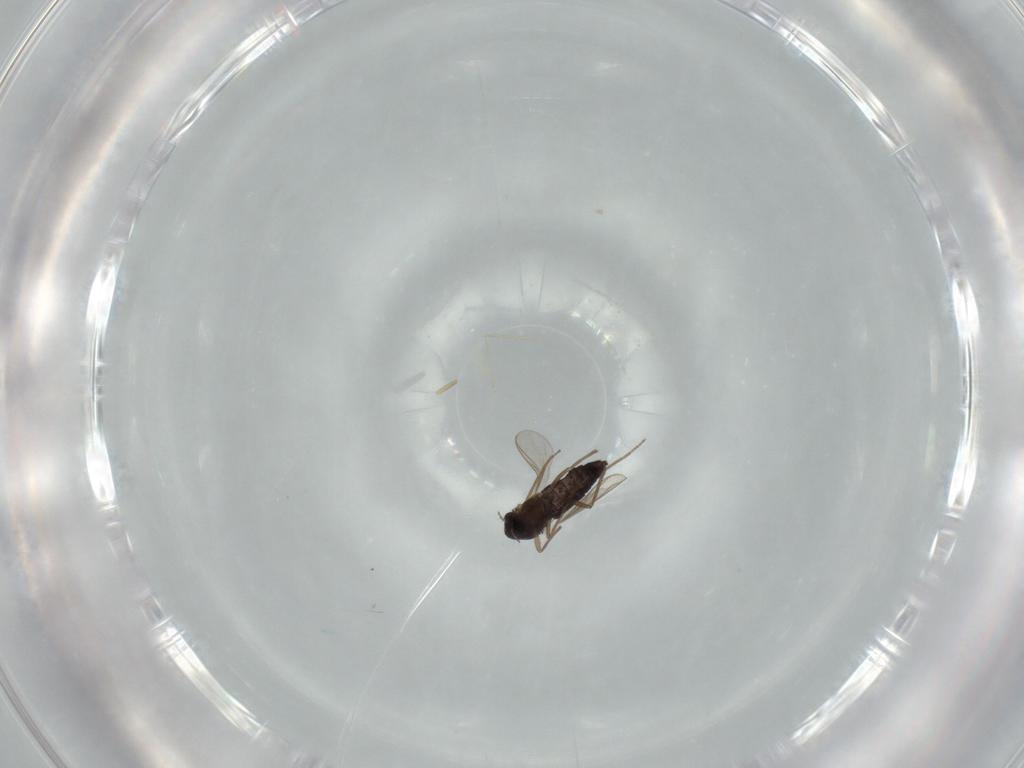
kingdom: Animalia
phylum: Arthropoda
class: Insecta
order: Diptera
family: Chironomidae
